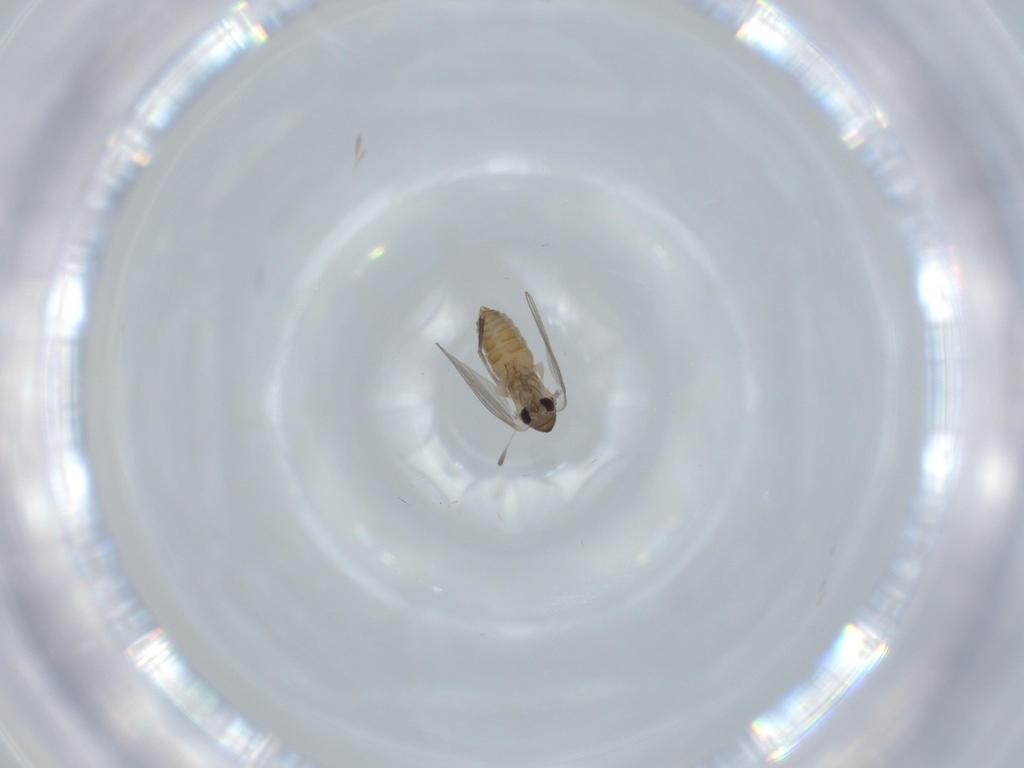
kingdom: Animalia
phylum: Arthropoda
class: Insecta
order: Diptera
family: Psychodidae
